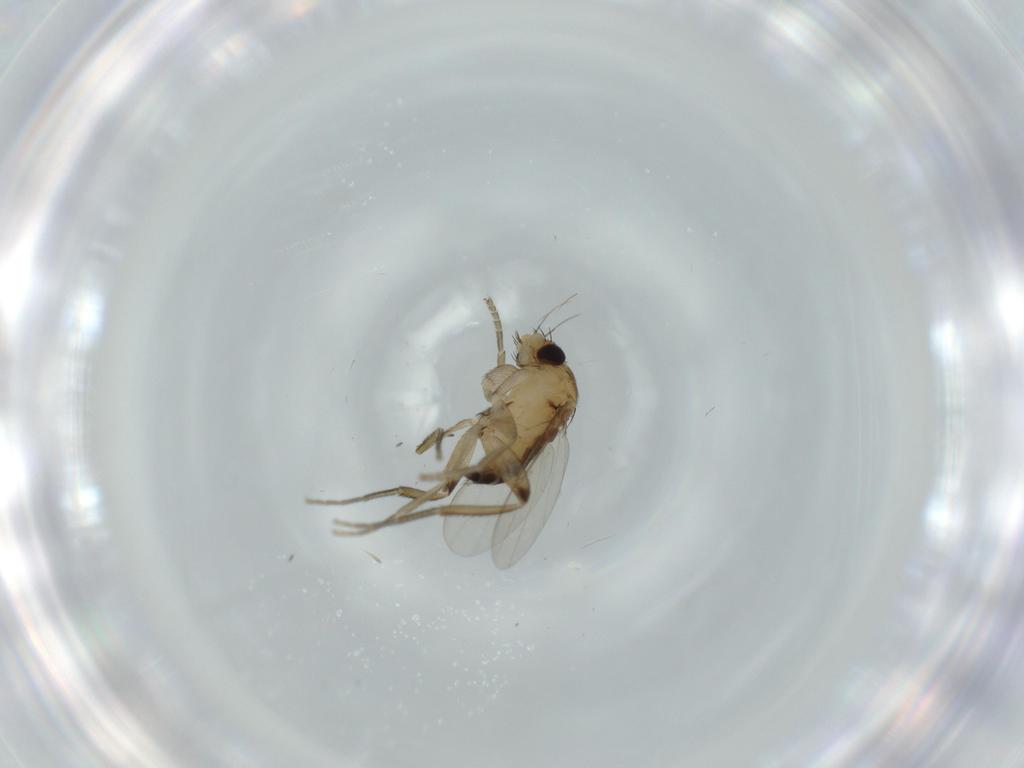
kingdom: Animalia
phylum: Arthropoda
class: Insecta
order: Diptera
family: Phoridae
